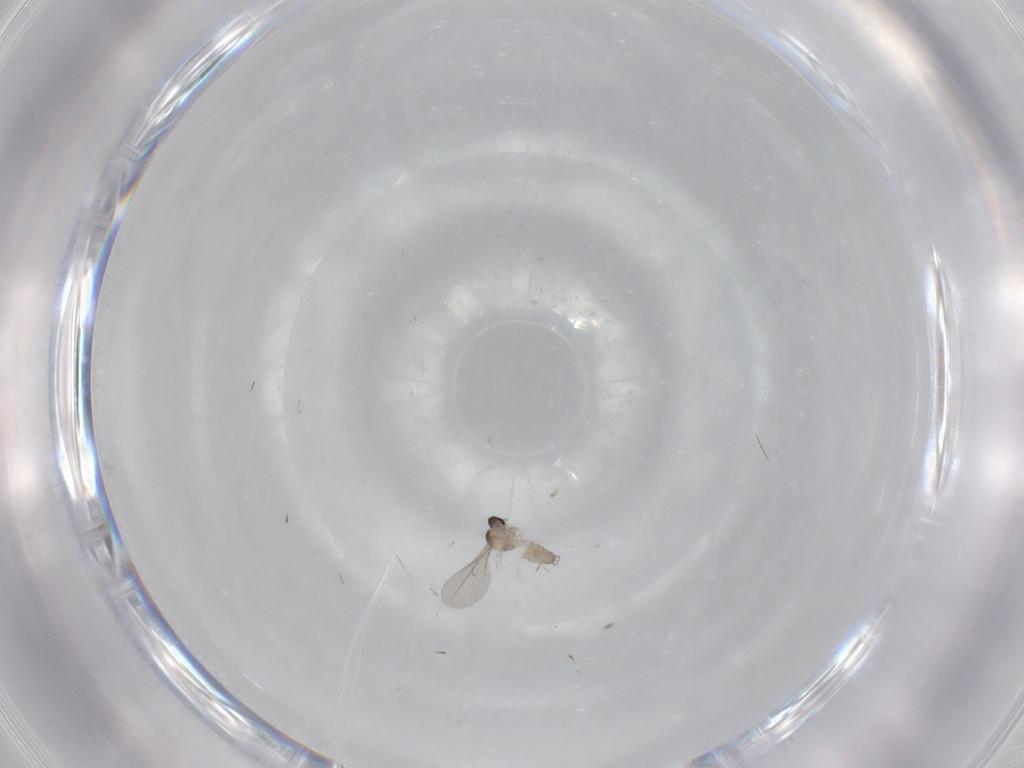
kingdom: Animalia
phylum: Arthropoda
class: Insecta
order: Diptera
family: Cecidomyiidae
